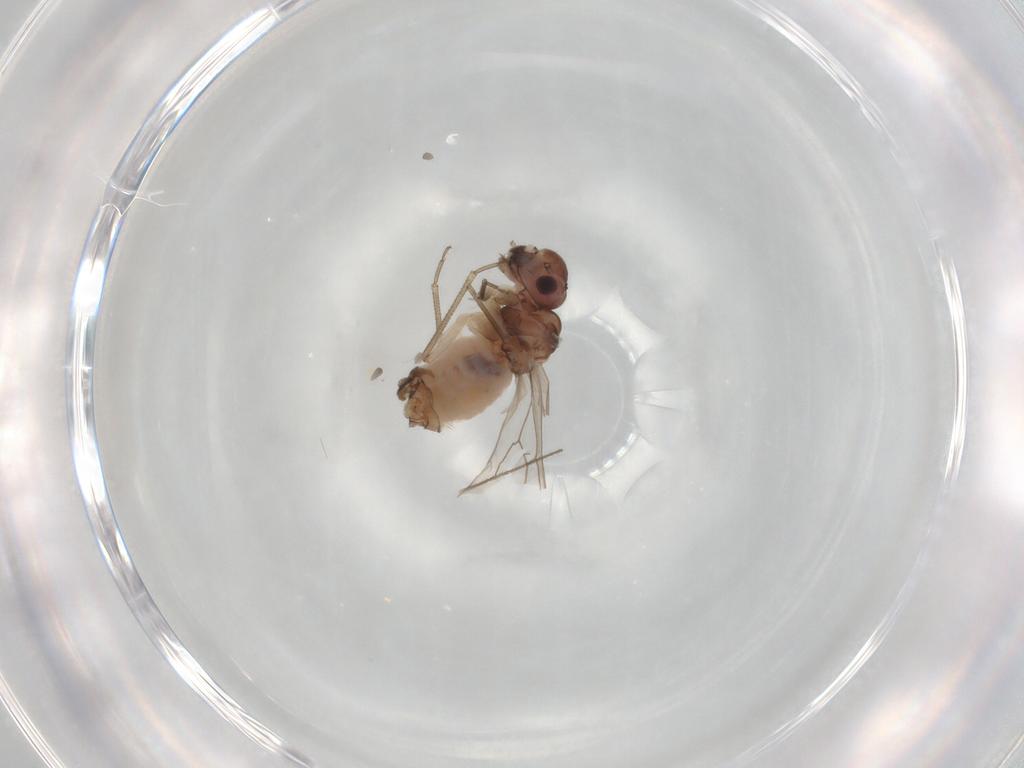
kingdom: Animalia
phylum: Arthropoda
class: Insecta
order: Psocodea
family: Peripsocidae
